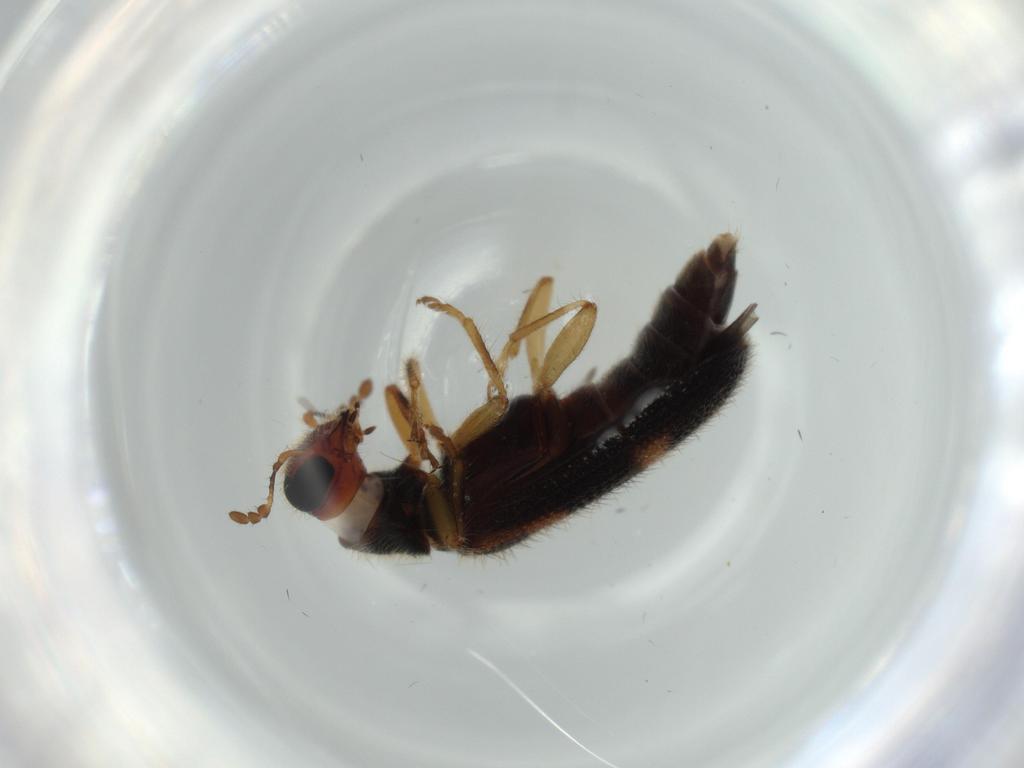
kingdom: Animalia
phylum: Arthropoda
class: Insecta
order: Coleoptera
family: Cleridae
